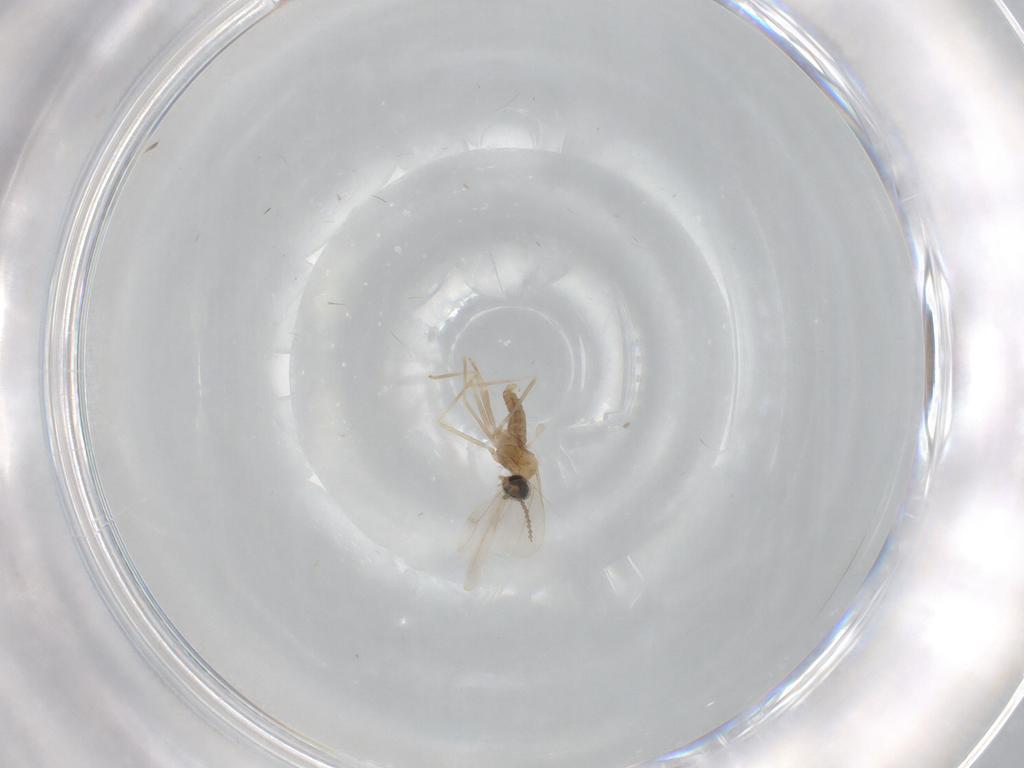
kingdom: Animalia
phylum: Arthropoda
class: Insecta
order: Diptera
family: Cecidomyiidae
